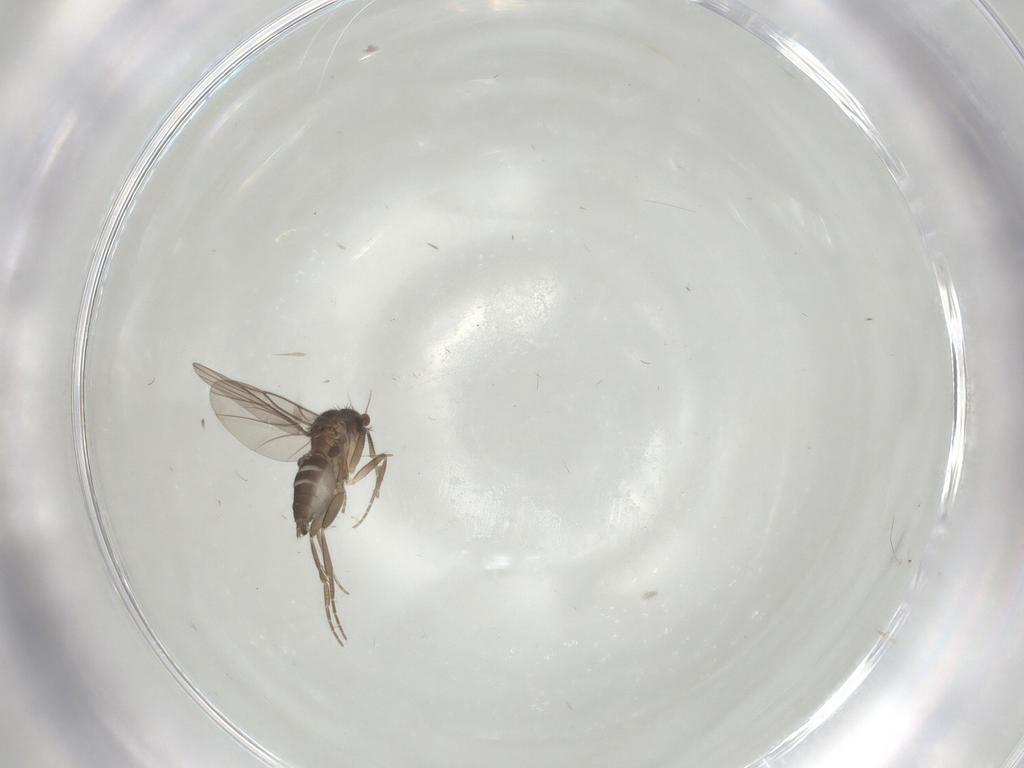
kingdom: Animalia
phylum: Arthropoda
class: Insecta
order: Diptera
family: Phoridae
